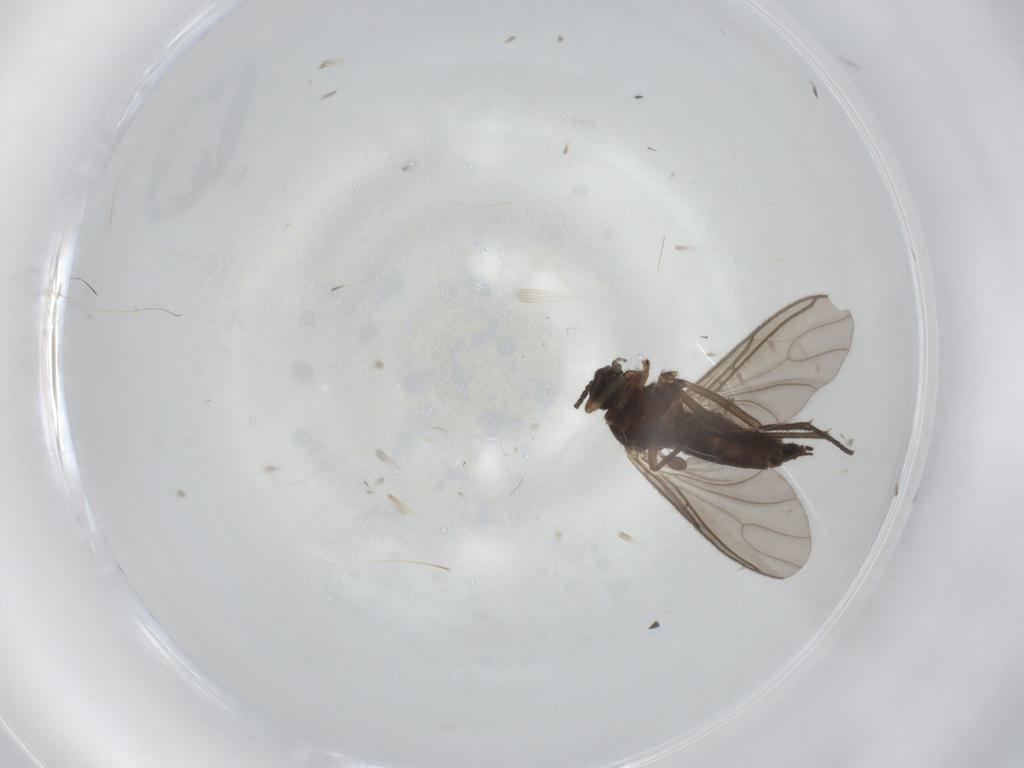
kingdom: Animalia
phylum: Arthropoda
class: Insecta
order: Diptera
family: Sciaridae
